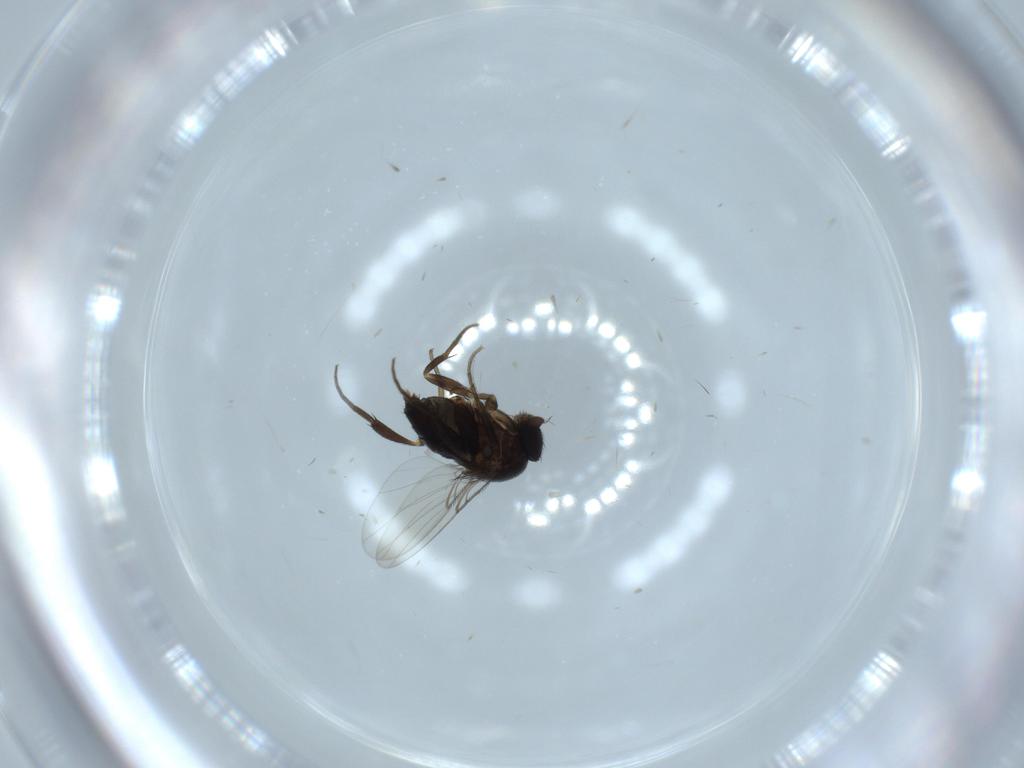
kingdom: Animalia
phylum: Arthropoda
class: Insecta
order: Diptera
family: Phoridae
